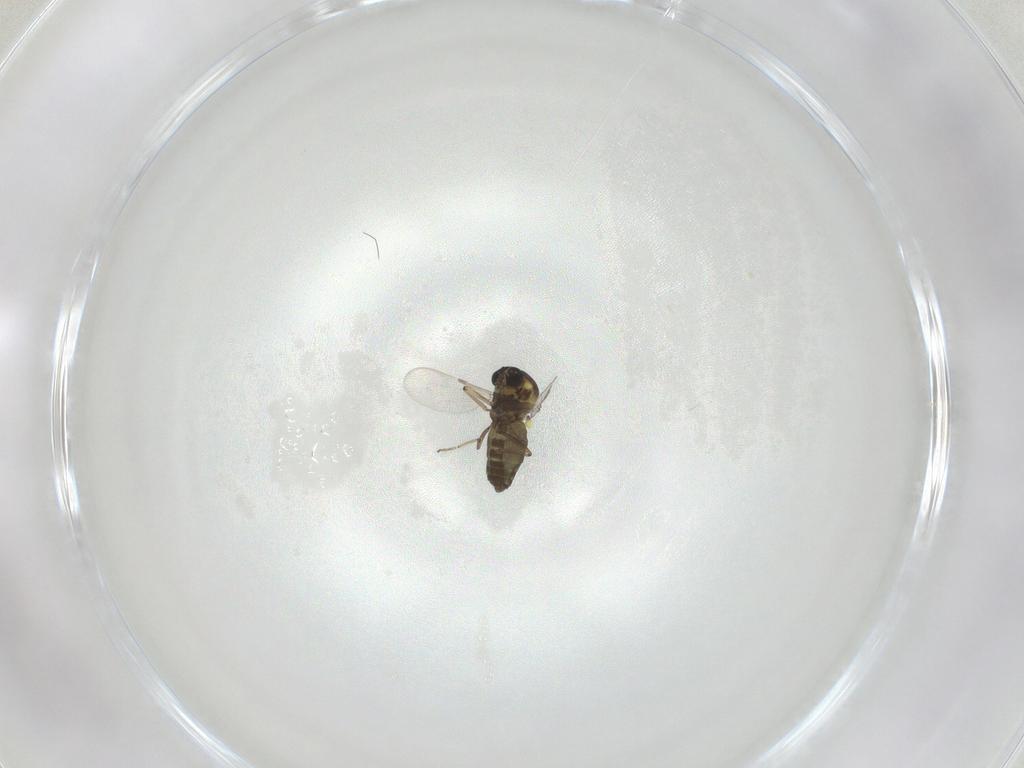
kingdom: Animalia
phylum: Arthropoda
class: Insecta
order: Diptera
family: Ceratopogonidae
